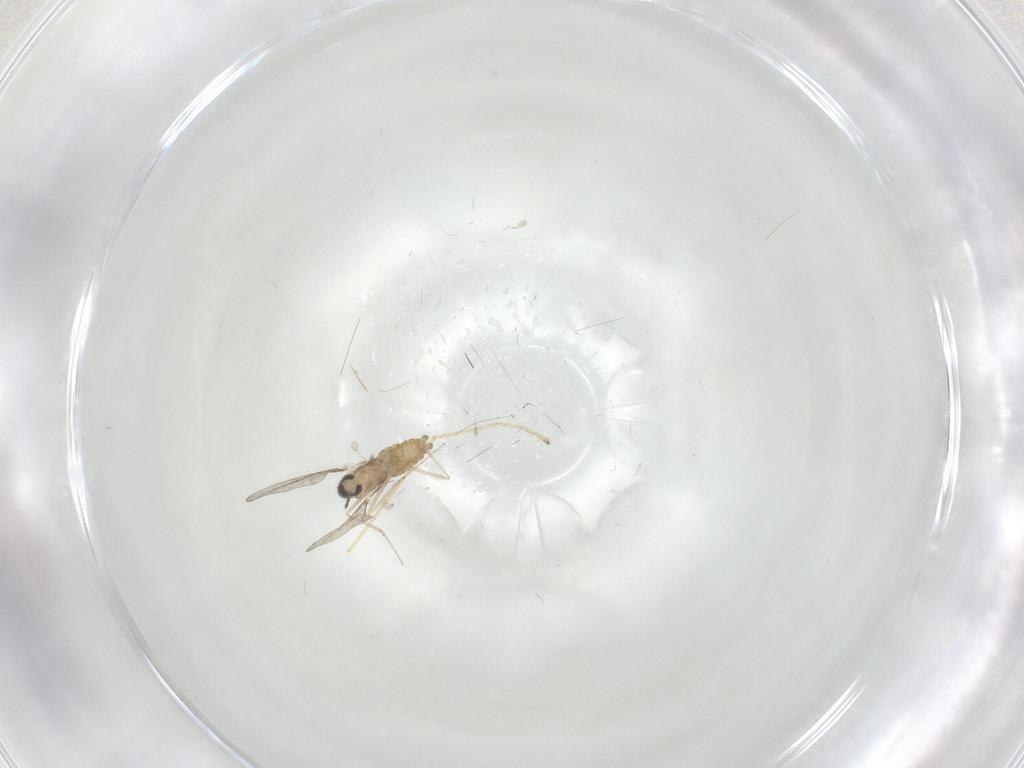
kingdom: Animalia
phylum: Arthropoda
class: Insecta
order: Diptera
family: Cecidomyiidae
